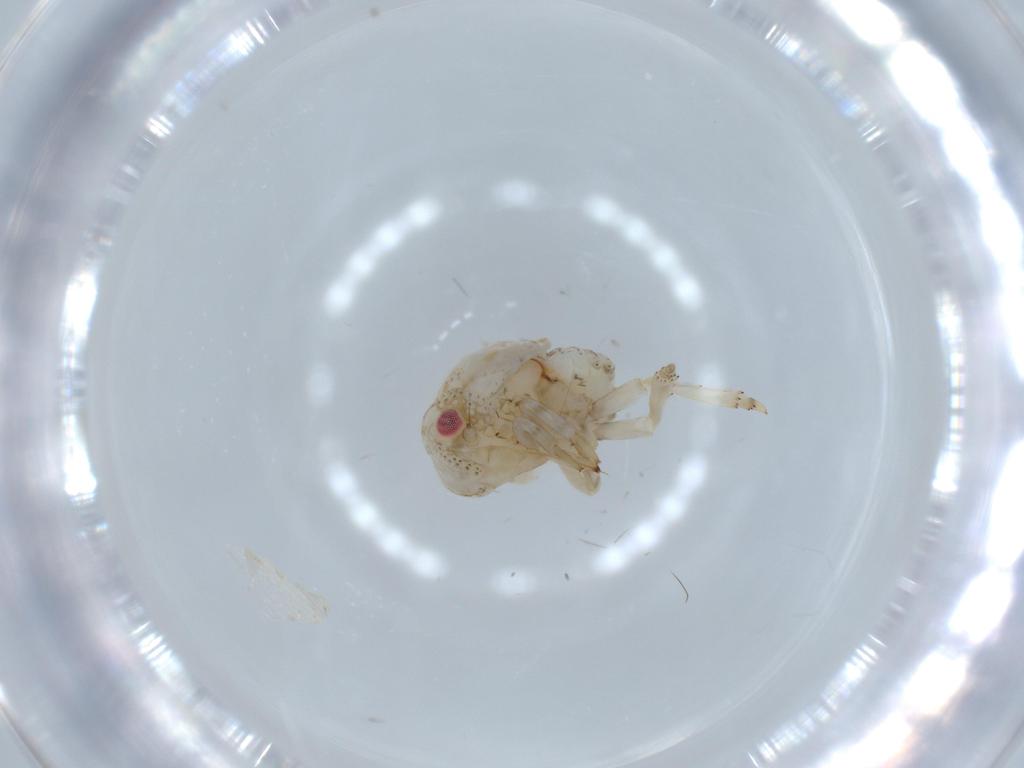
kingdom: Animalia
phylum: Arthropoda
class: Insecta
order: Hemiptera
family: Acanaloniidae
